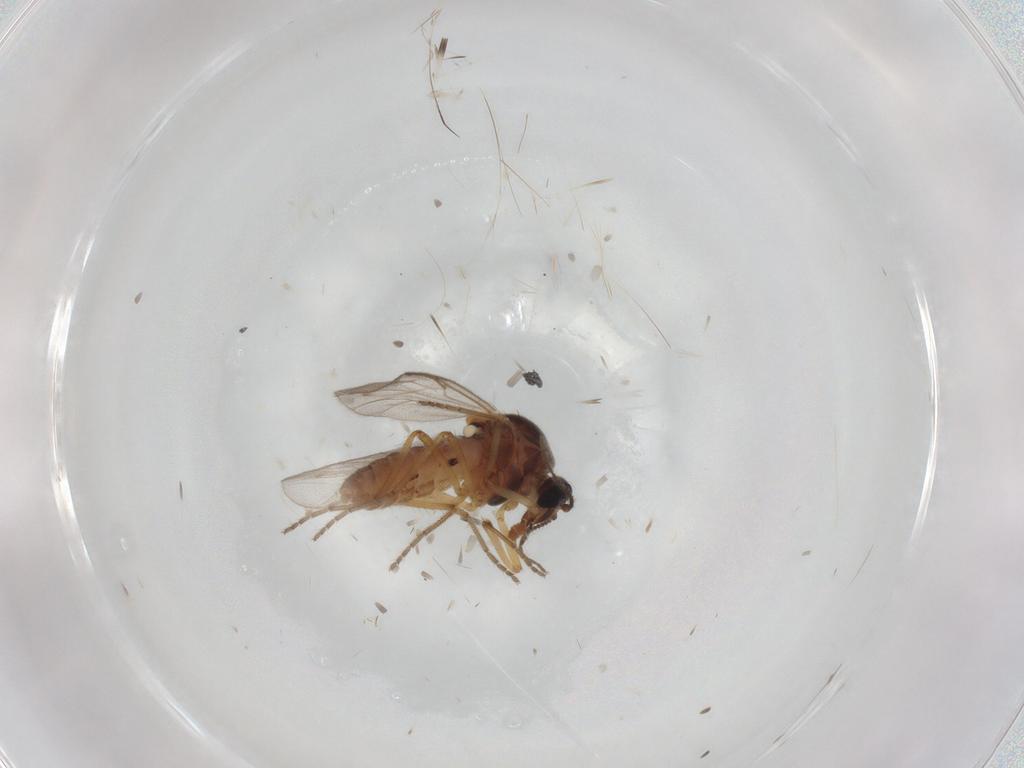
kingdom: Animalia
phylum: Arthropoda
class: Insecta
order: Diptera
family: Ceratopogonidae
